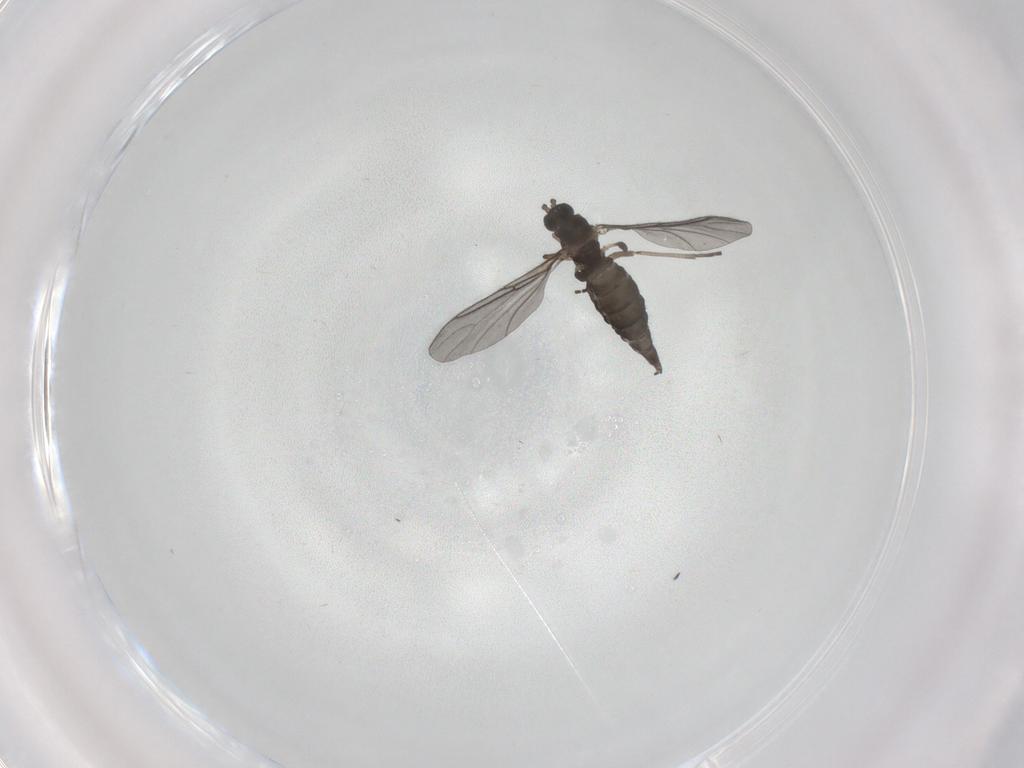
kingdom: Animalia
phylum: Arthropoda
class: Insecta
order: Diptera
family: Sciaridae
